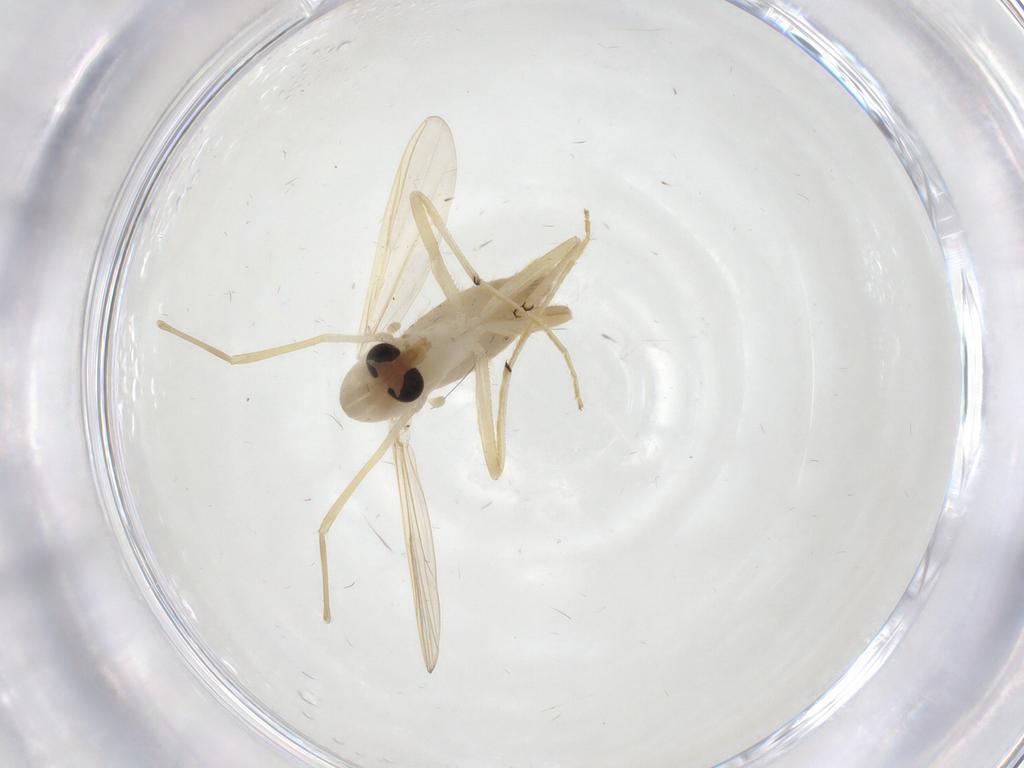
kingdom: Animalia
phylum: Arthropoda
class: Insecta
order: Diptera
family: Chironomidae
